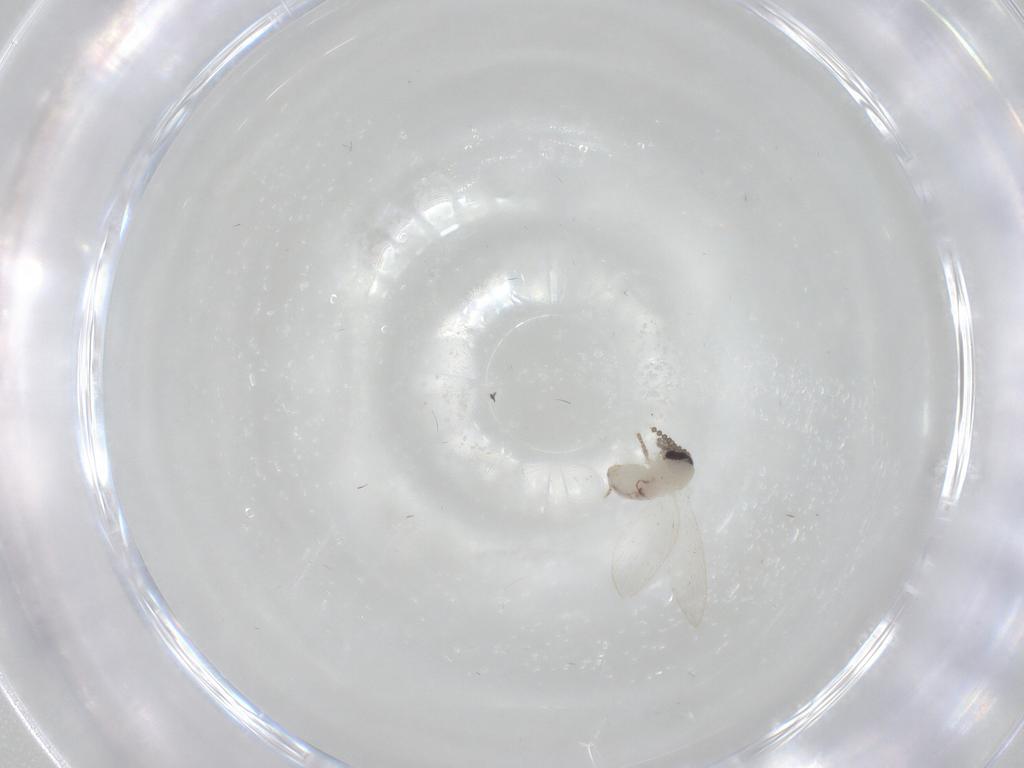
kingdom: Animalia
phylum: Arthropoda
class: Insecta
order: Diptera
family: Psychodidae
